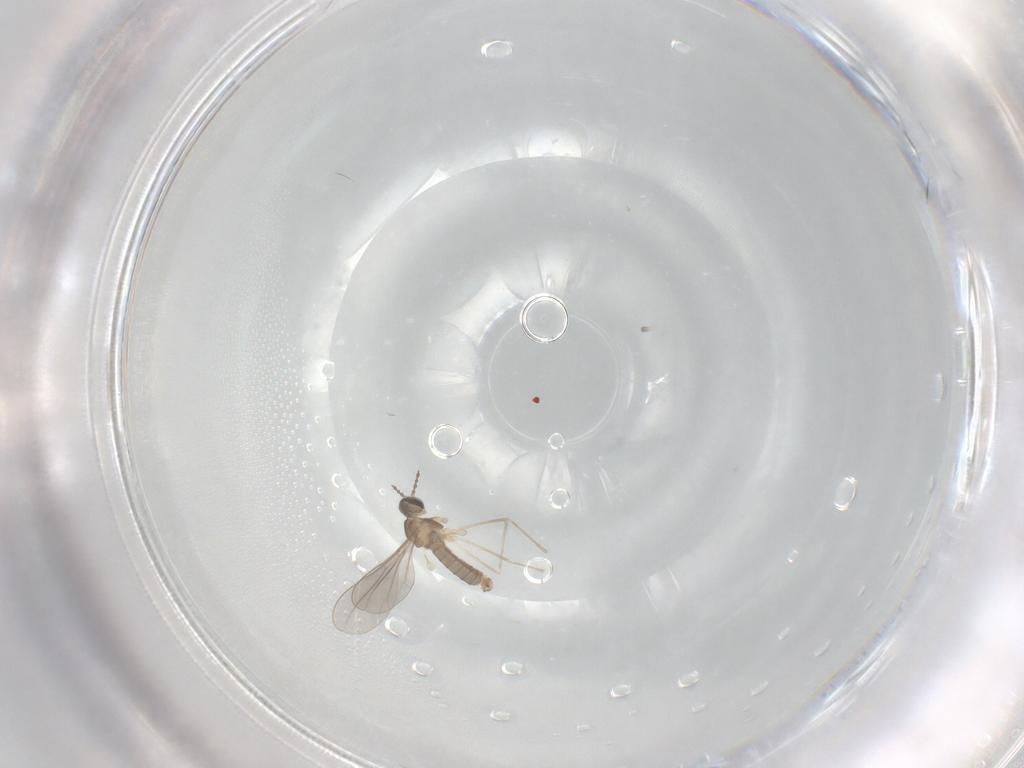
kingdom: Animalia
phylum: Arthropoda
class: Insecta
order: Diptera
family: Cecidomyiidae
